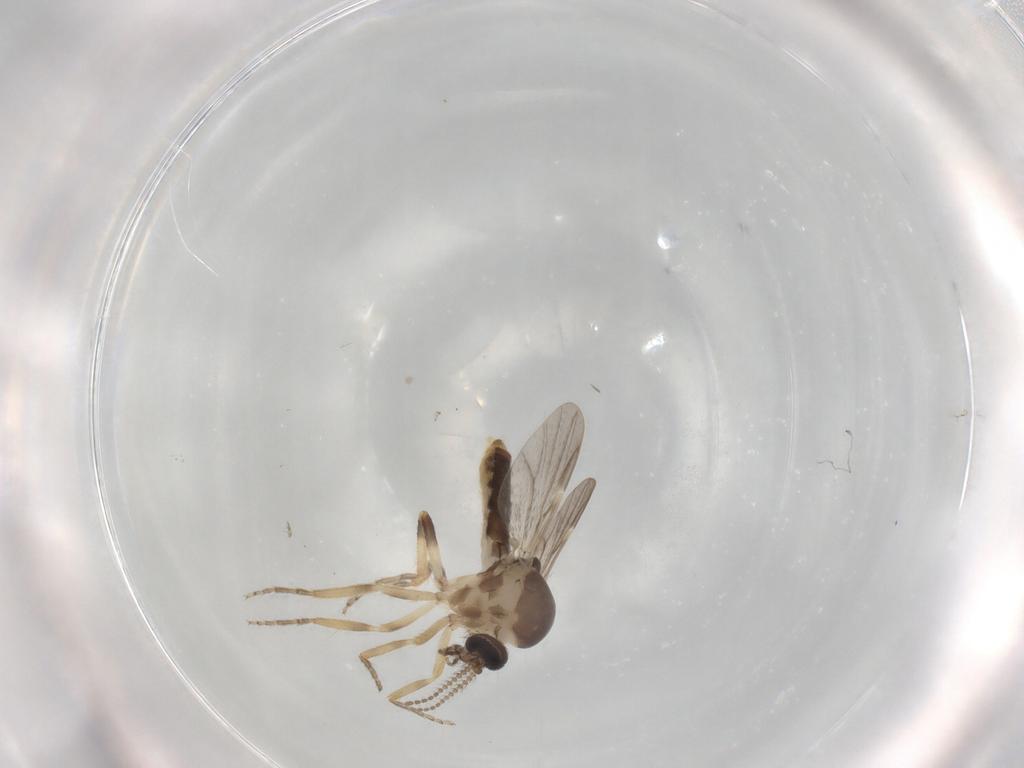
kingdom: Animalia
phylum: Arthropoda
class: Insecta
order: Diptera
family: Ceratopogonidae
